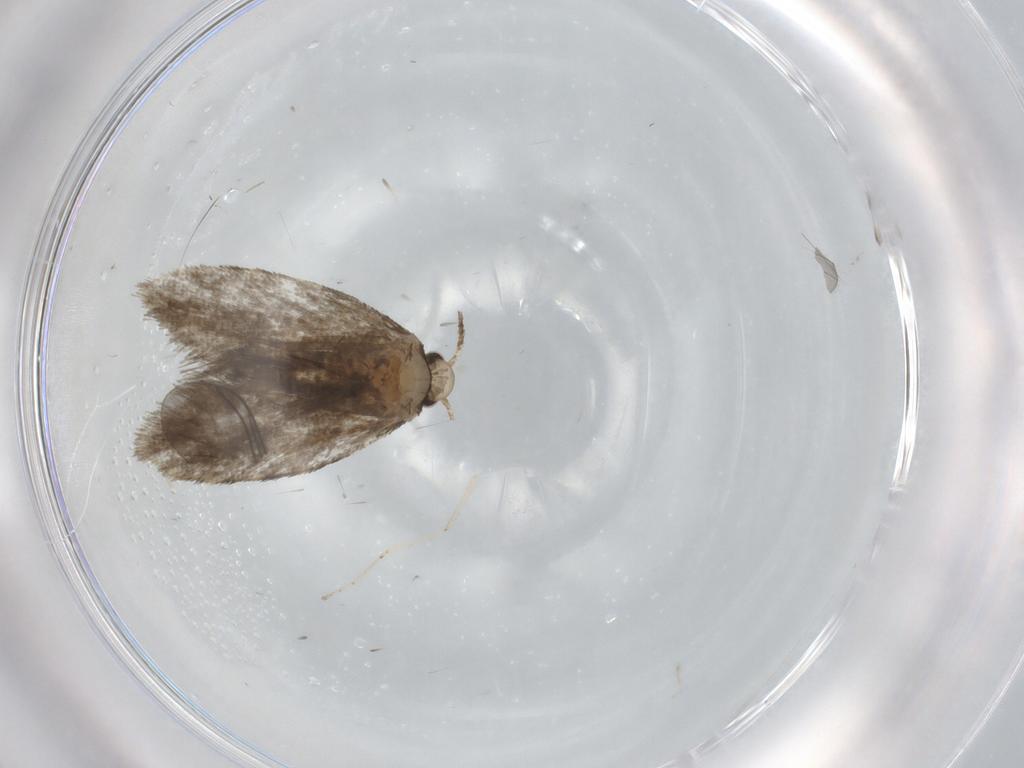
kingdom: Animalia
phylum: Arthropoda
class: Insecta
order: Lepidoptera
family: Psychidae
